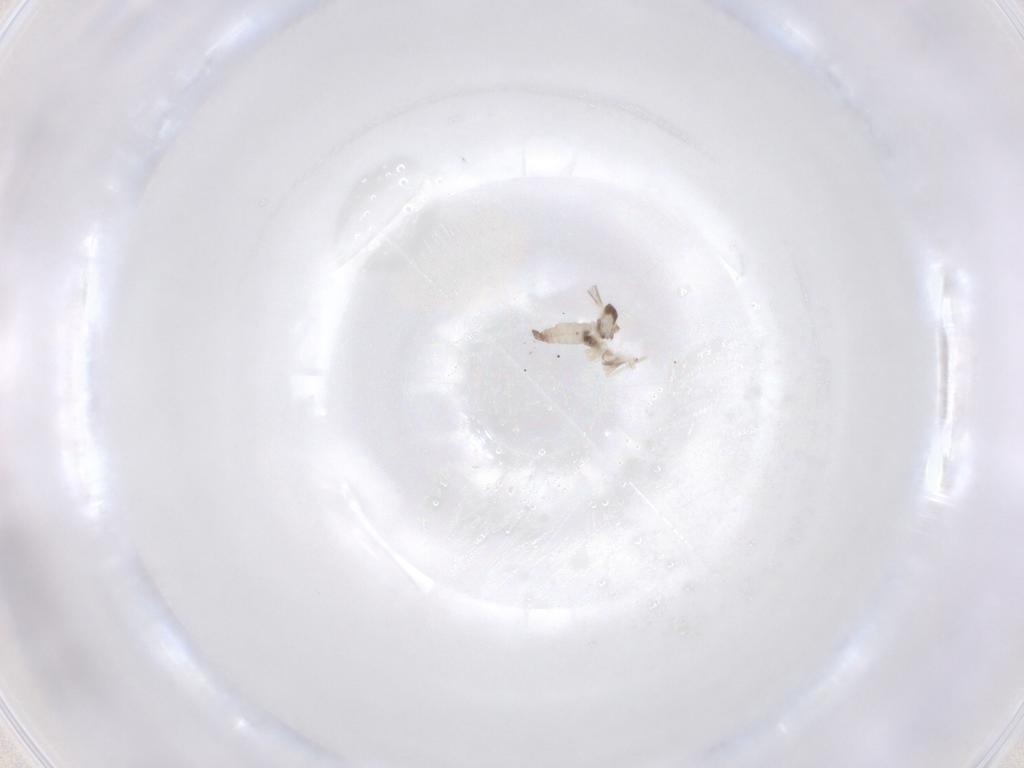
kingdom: Animalia
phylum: Arthropoda
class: Insecta
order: Diptera
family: Cecidomyiidae
